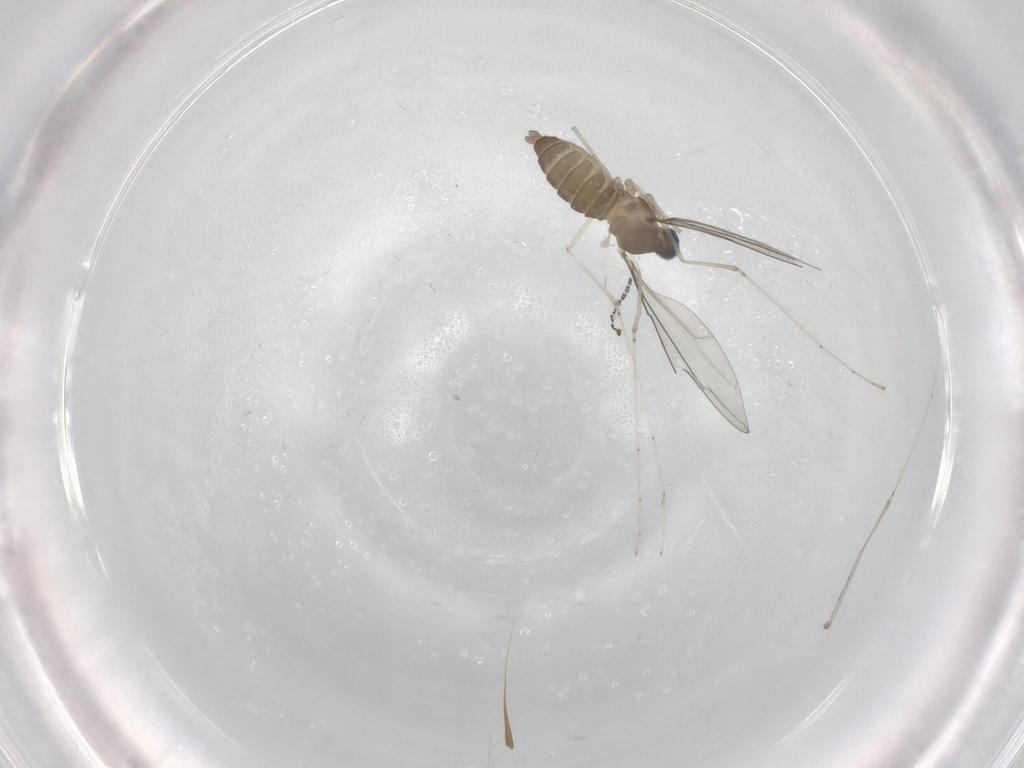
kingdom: Animalia
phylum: Arthropoda
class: Insecta
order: Diptera
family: Cecidomyiidae
